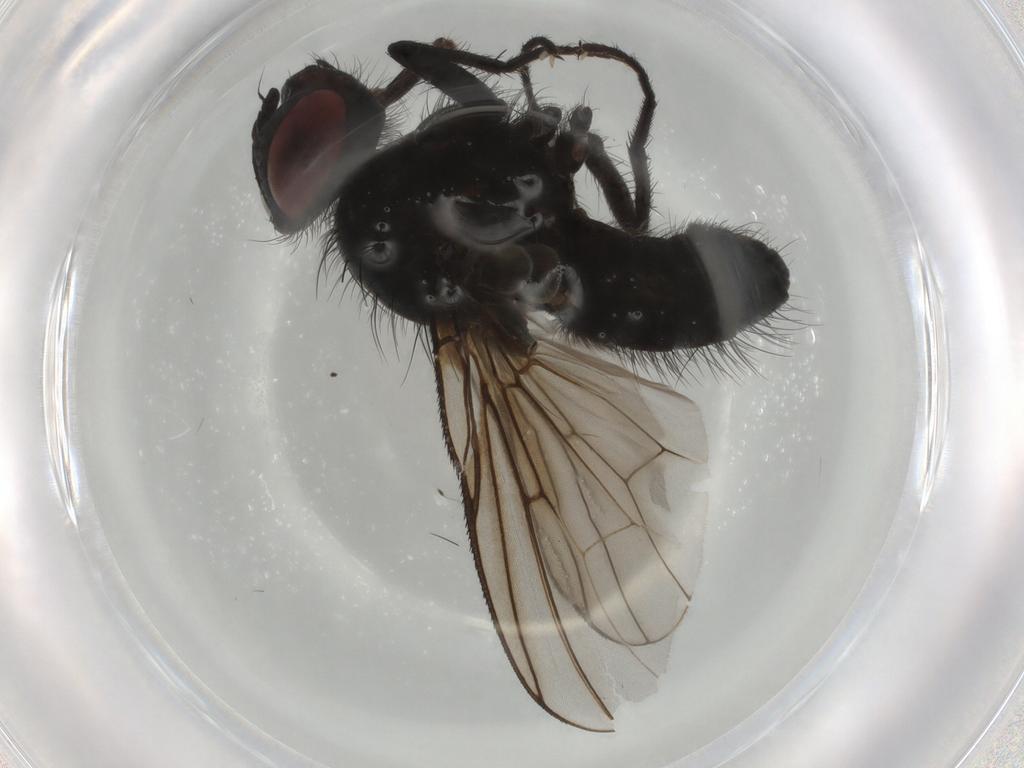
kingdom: Animalia
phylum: Arthropoda
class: Insecta
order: Diptera
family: Muscidae
